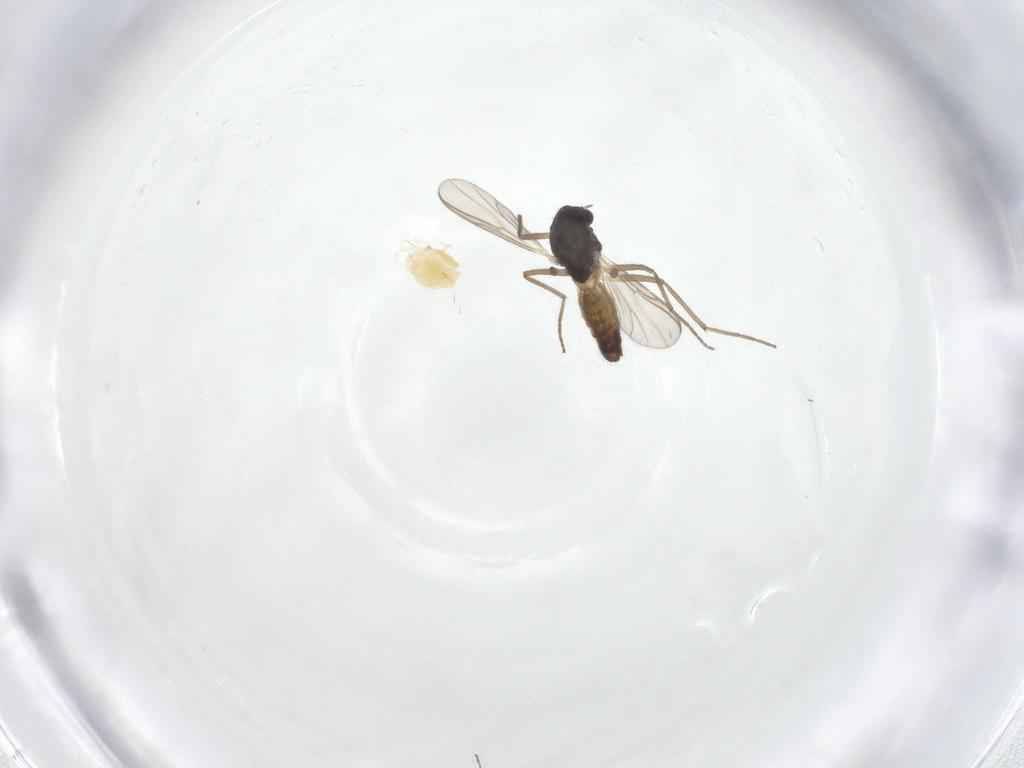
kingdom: Animalia
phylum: Arthropoda
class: Insecta
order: Diptera
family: Chironomidae
